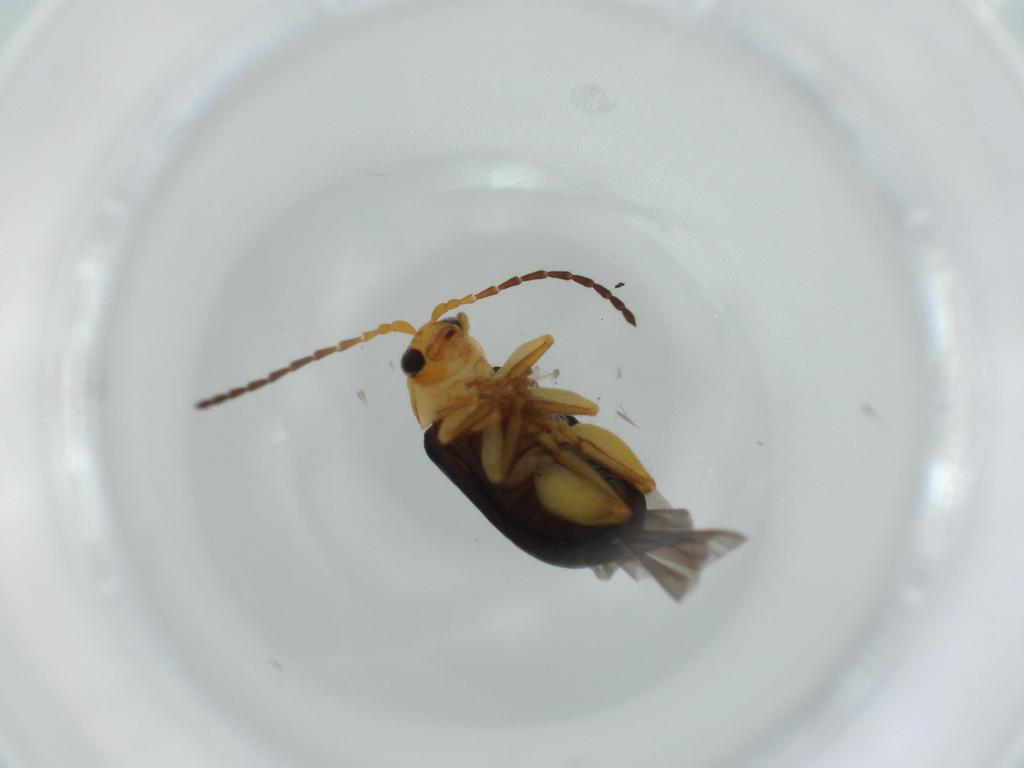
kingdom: Animalia
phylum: Arthropoda
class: Insecta
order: Coleoptera
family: Chrysomelidae
